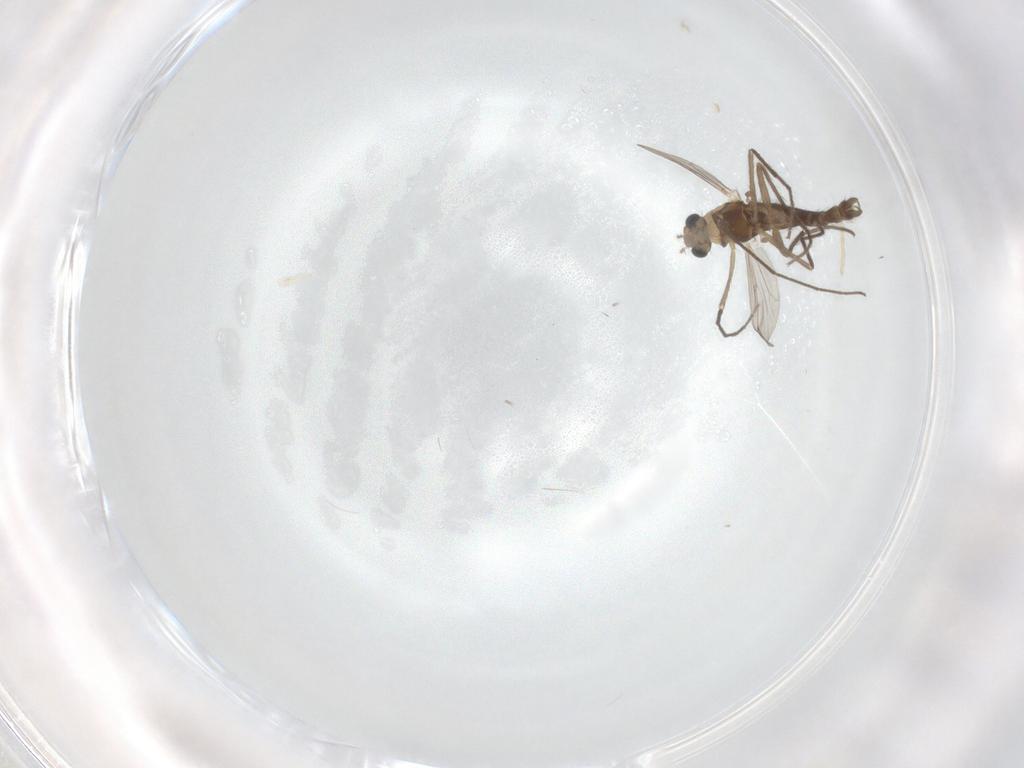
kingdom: Animalia
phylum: Arthropoda
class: Insecta
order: Diptera
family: Chironomidae
